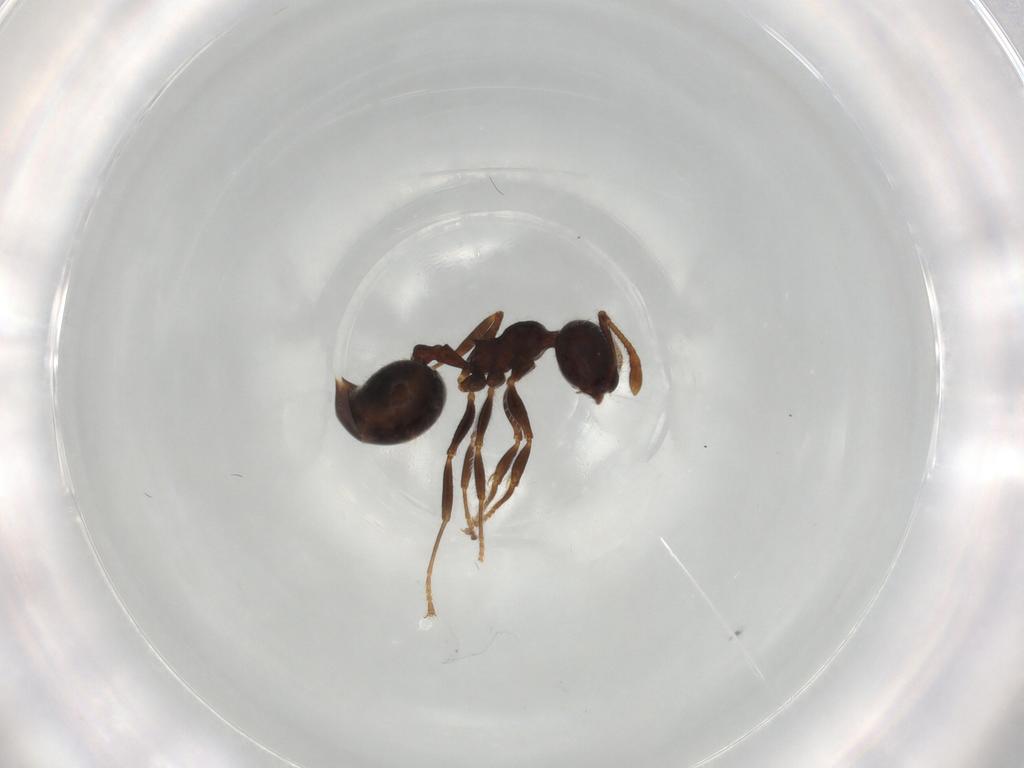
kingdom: Animalia
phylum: Arthropoda
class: Insecta
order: Hymenoptera
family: Formicidae
